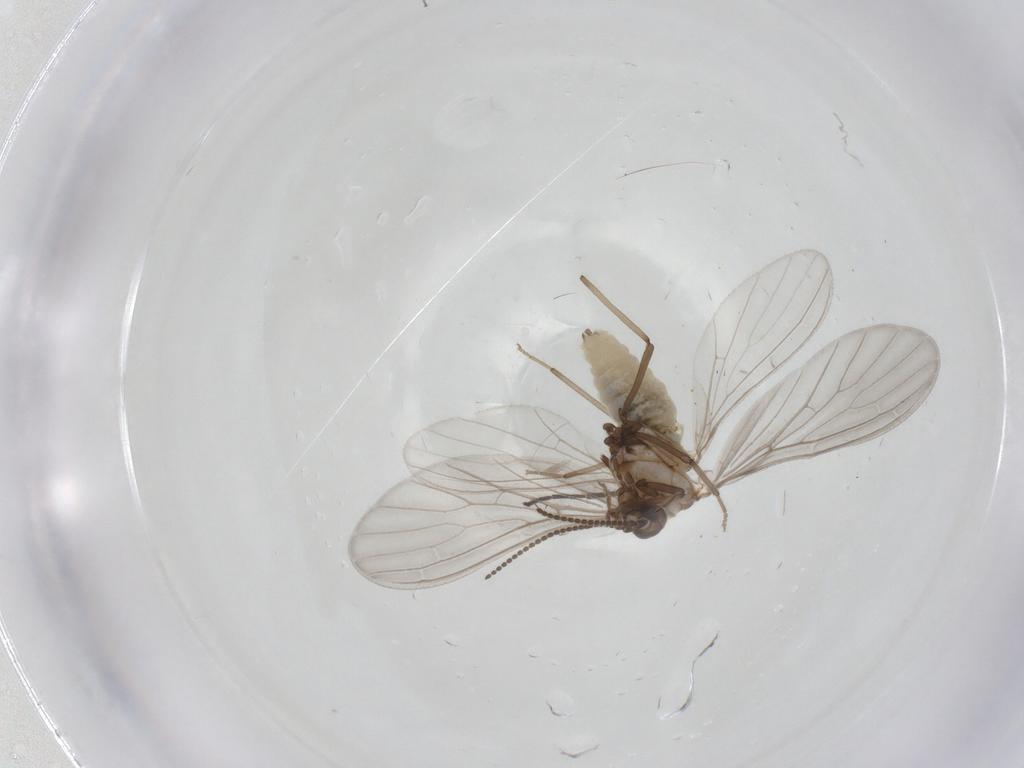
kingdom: Animalia
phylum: Arthropoda
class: Insecta
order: Neuroptera
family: Coniopterygidae
